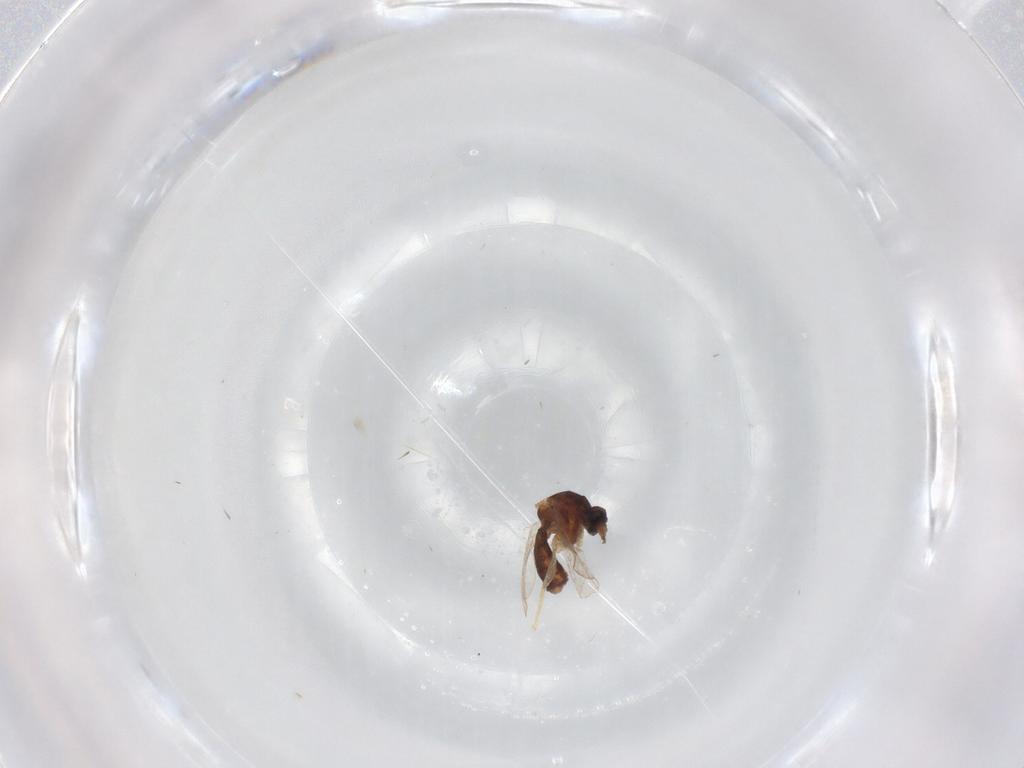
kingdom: Animalia
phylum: Arthropoda
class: Insecta
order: Diptera
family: Ceratopogonidae
